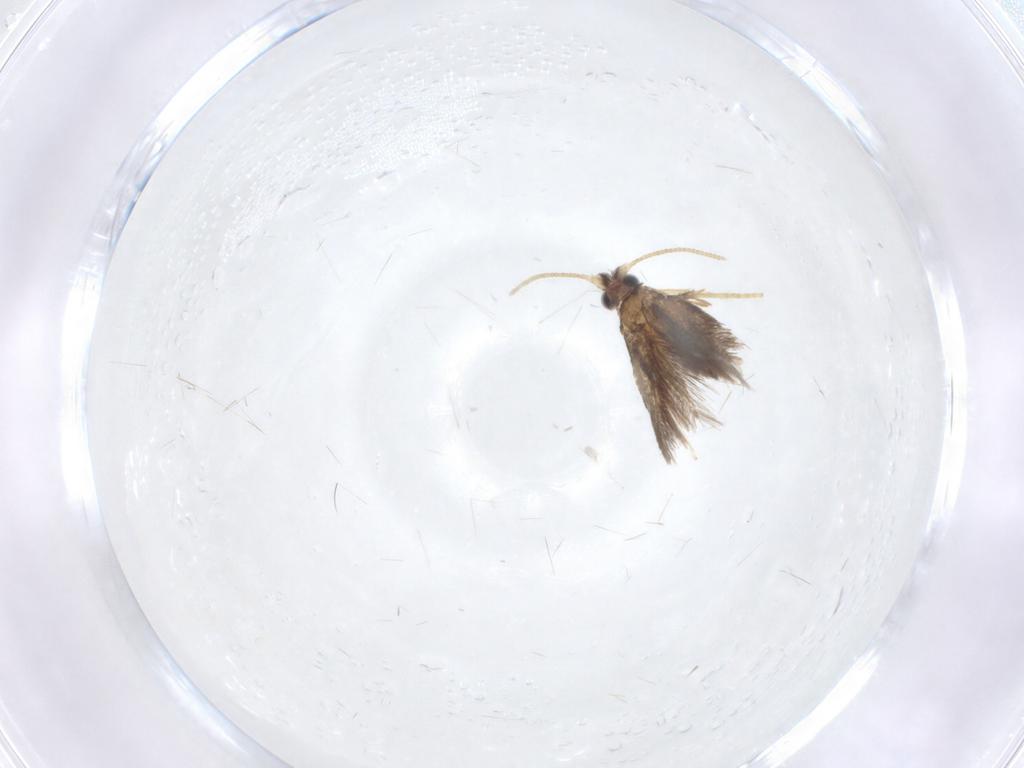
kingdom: Animalia
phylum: Arthropoda
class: Insecta
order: Lepidoptera
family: Nepticulidae
